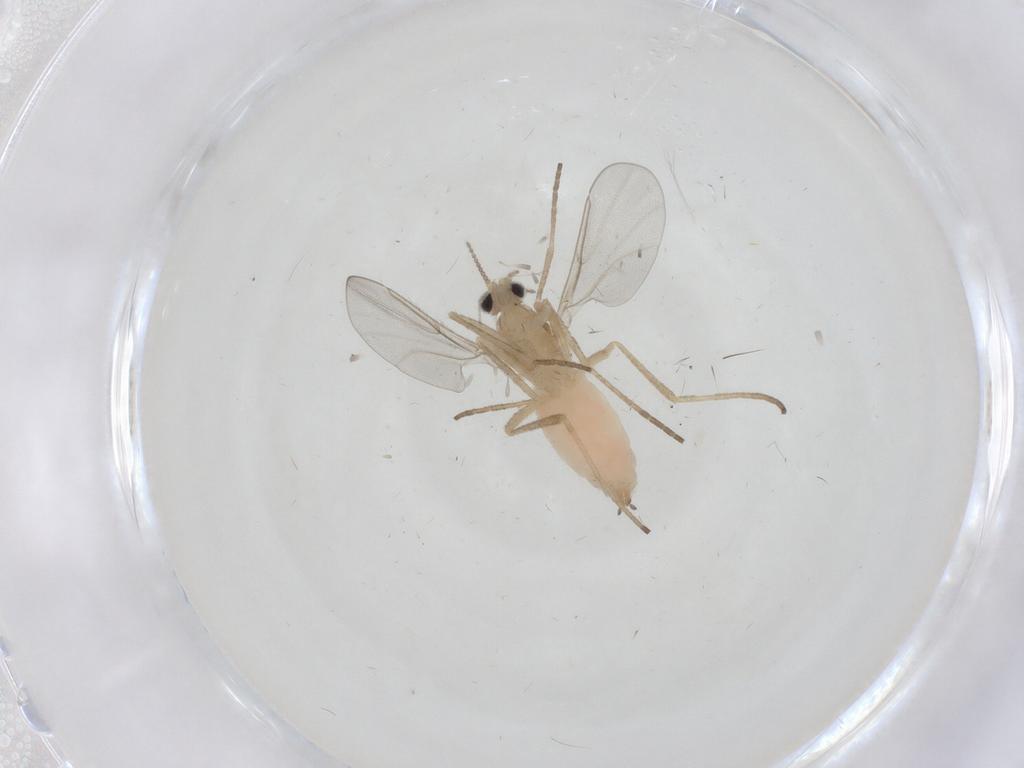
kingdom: Animalia
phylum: Arthropoda
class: Insecta
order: Diptera
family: Cecidomyiidae
